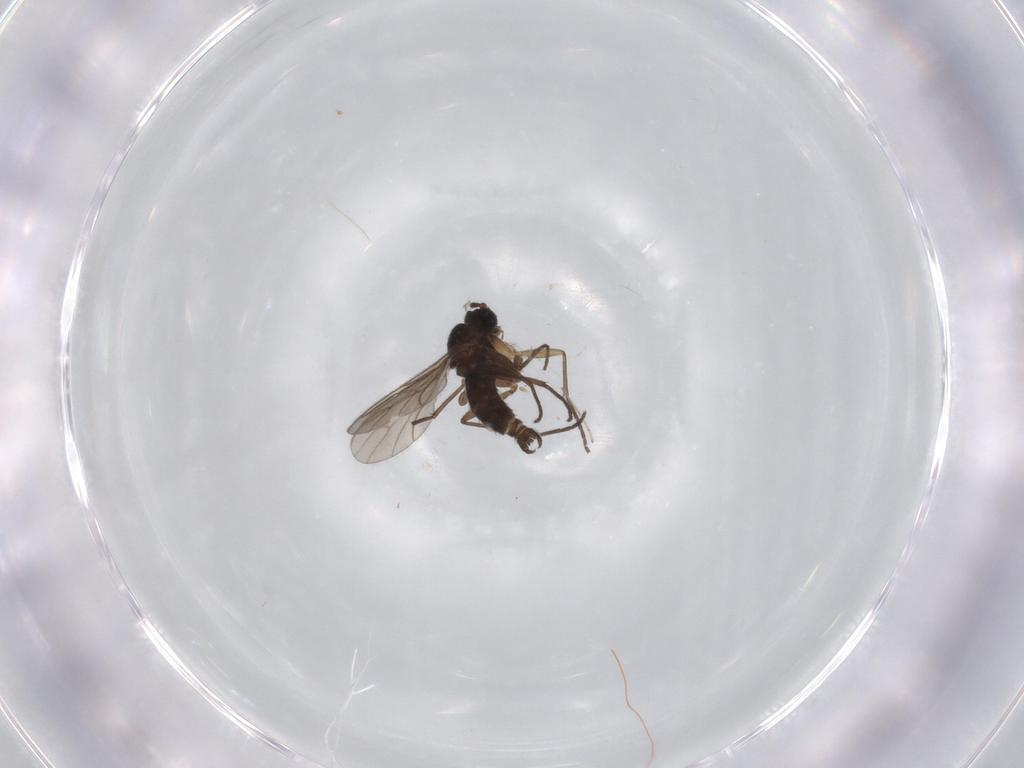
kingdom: Animalia
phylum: Arthropoda
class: Insecta
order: Diptera
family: Sciaridae
